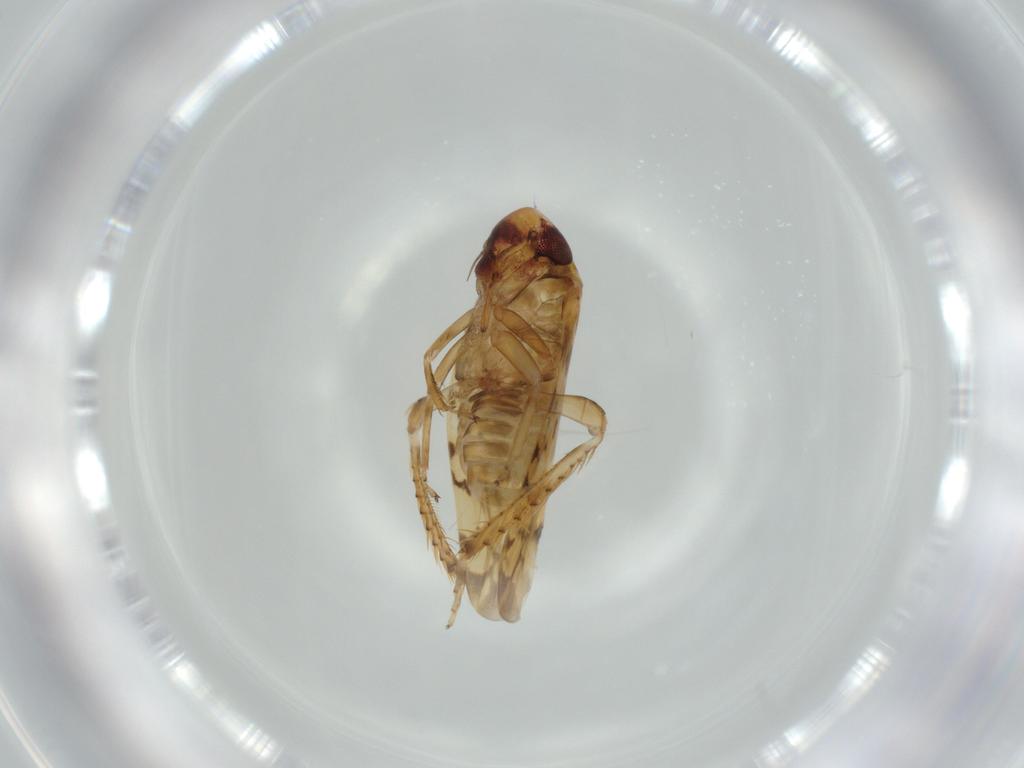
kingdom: Animalia
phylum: Arthropoda
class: Insecta
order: Hemiptera
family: Cicadellidae
